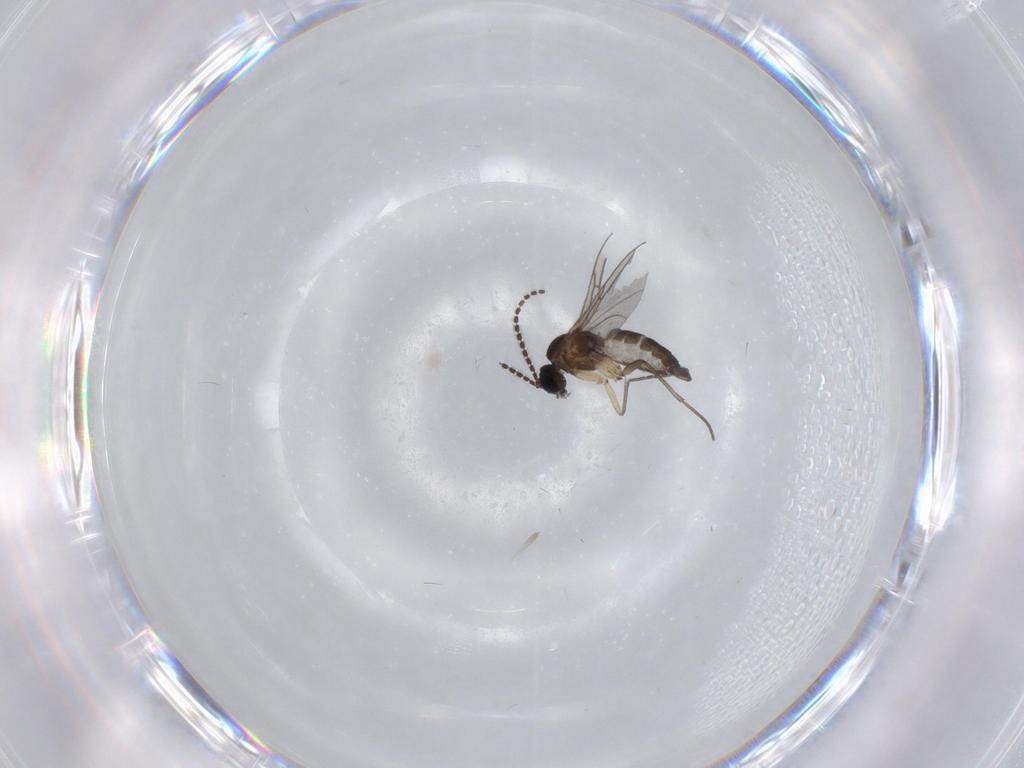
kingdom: Animalia
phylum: Arthropoda
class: Insecta
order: Diptera
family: Sciaridae
